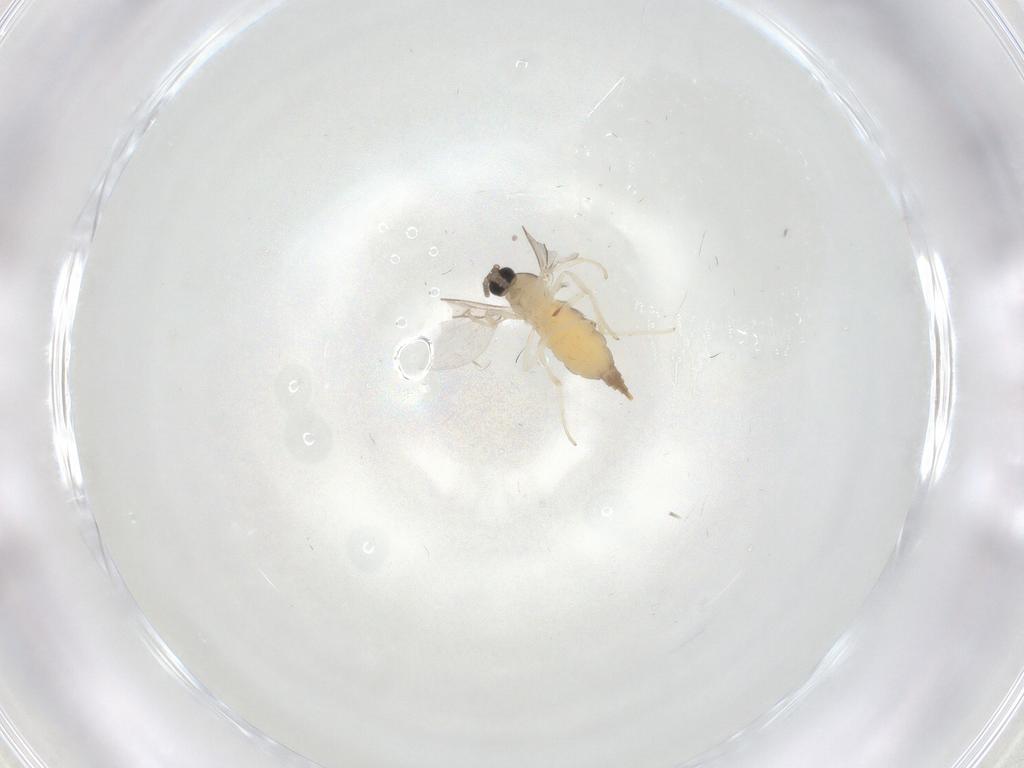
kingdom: Animalia
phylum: Arthropoda
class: Insecta
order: Diptera
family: Cecidomyiidae
